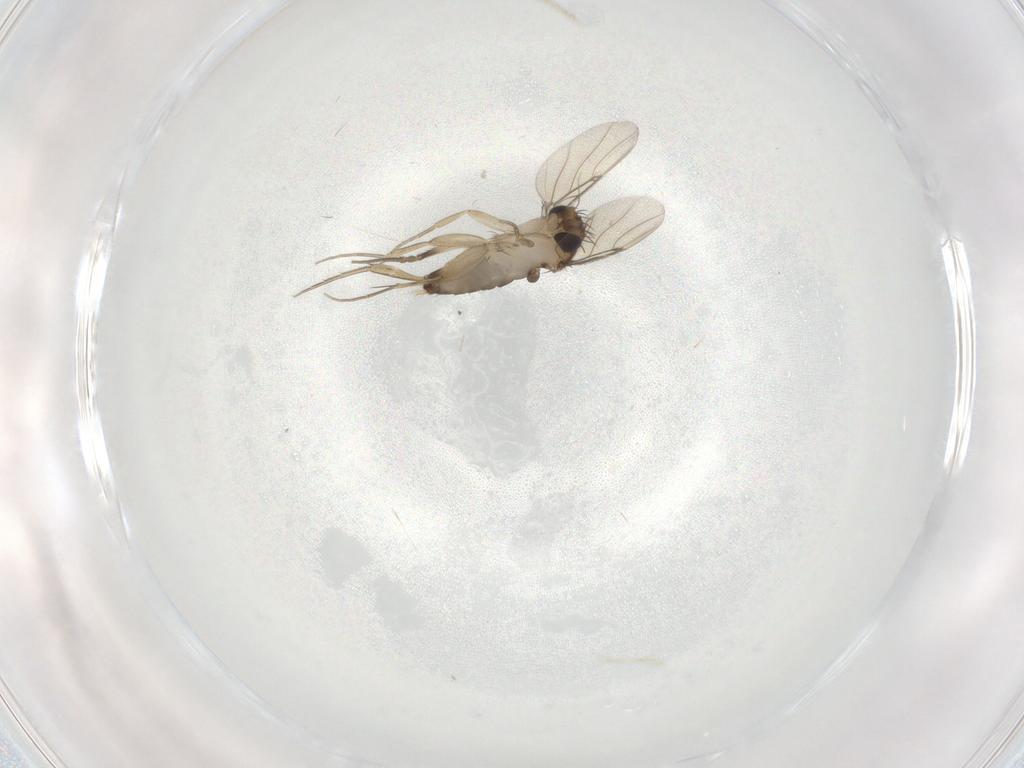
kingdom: Animalia
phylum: Arthropoda
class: Insecta
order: Diptera
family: Phoridae
